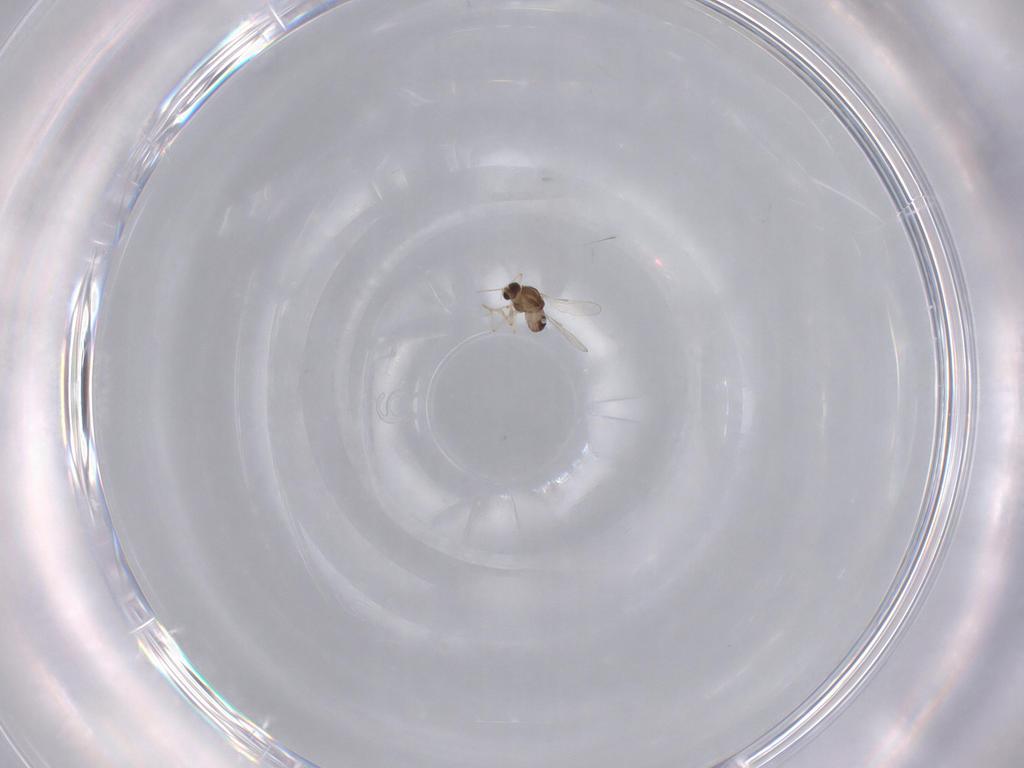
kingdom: Animalia
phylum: Arthropoda
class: Insecta
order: Diptera
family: Chironomidae
